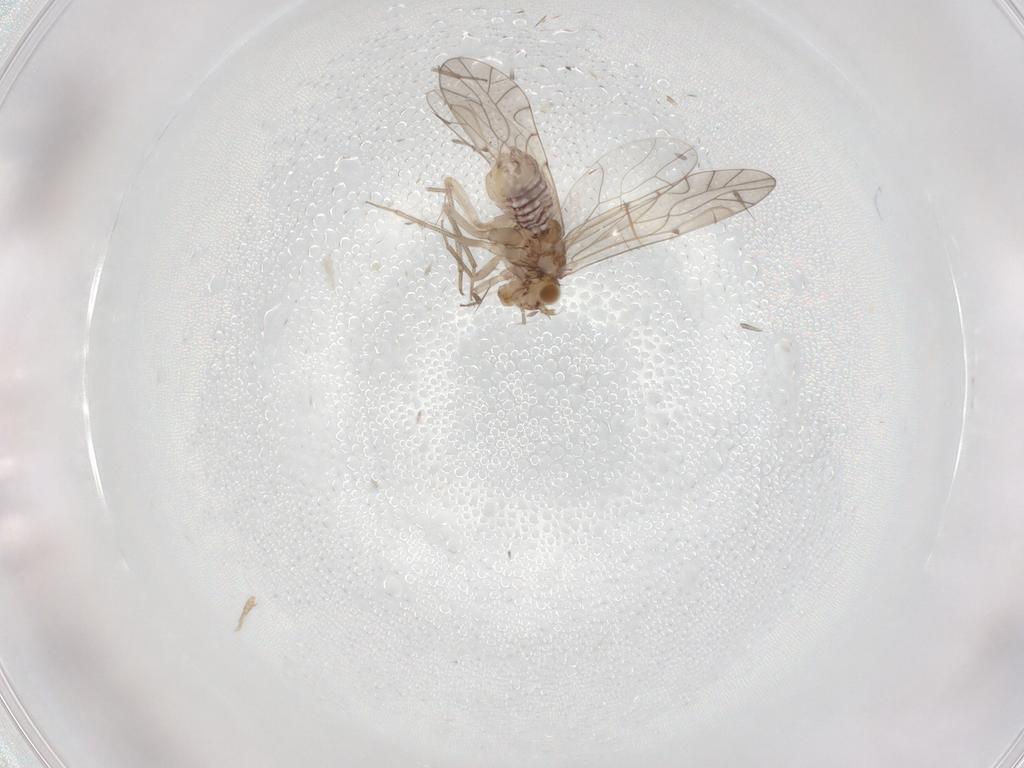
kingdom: Animalia
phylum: Arthropoda
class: Insecta
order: Psocodea
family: Lachesillidae
